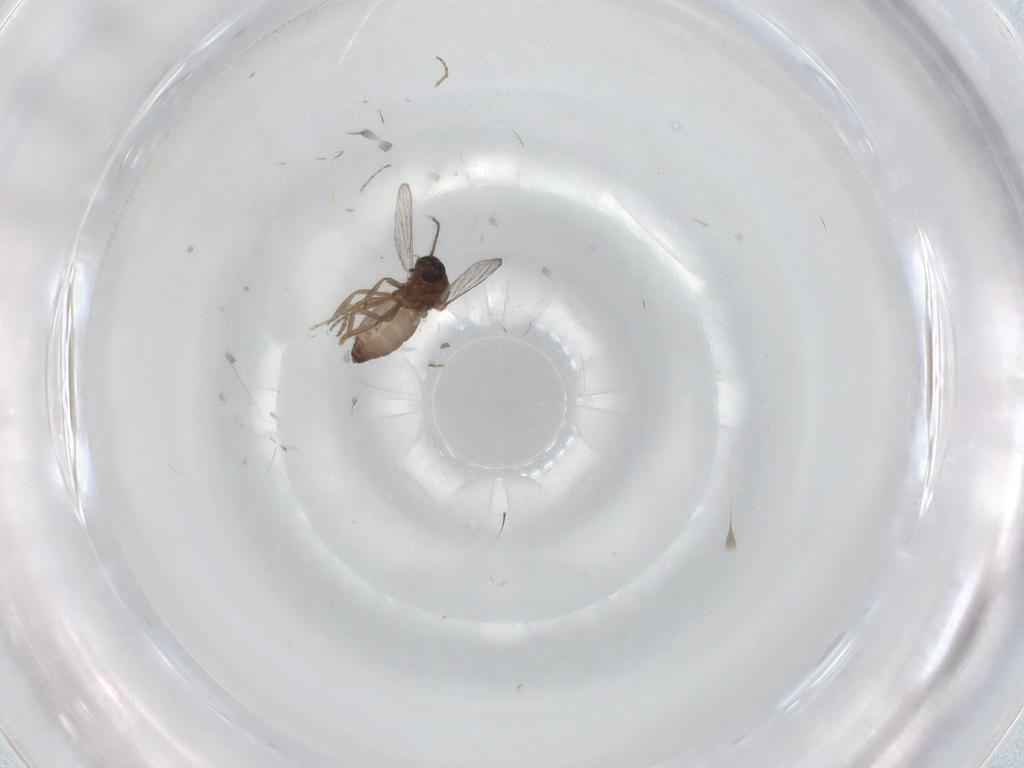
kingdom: Animalia
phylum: Arthropoda
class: Insecta
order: Diptera
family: Ceratopogonidae
